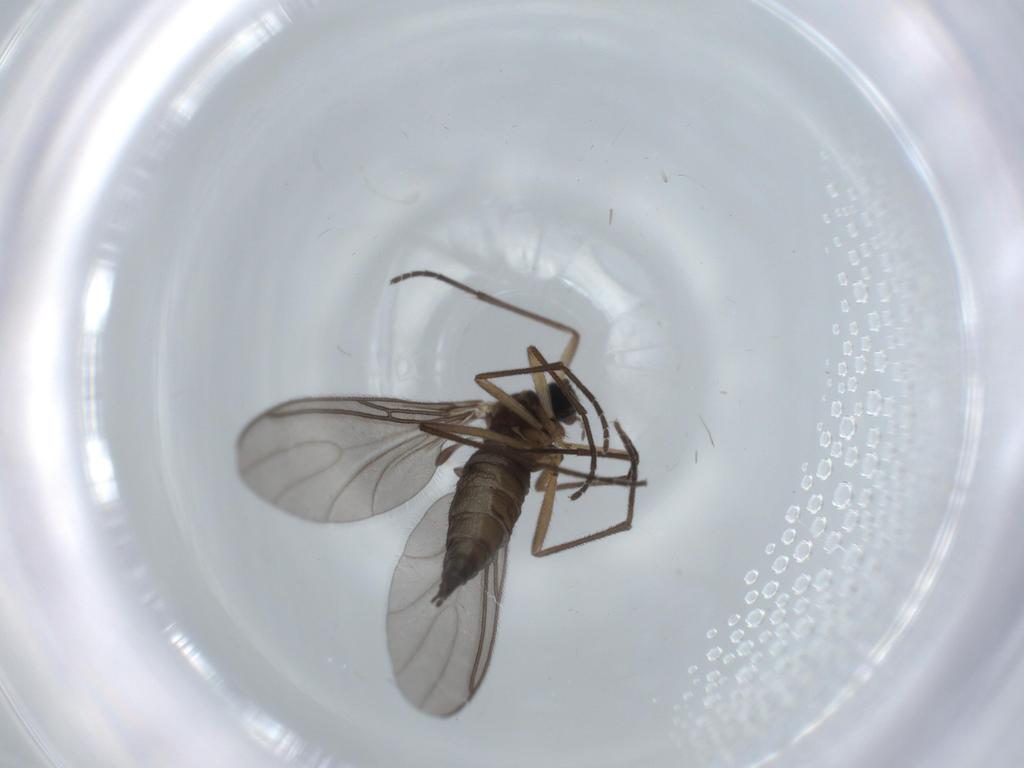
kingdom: Animalia
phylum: Arthropoda
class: Insecta
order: Diptera
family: Sciaridae
